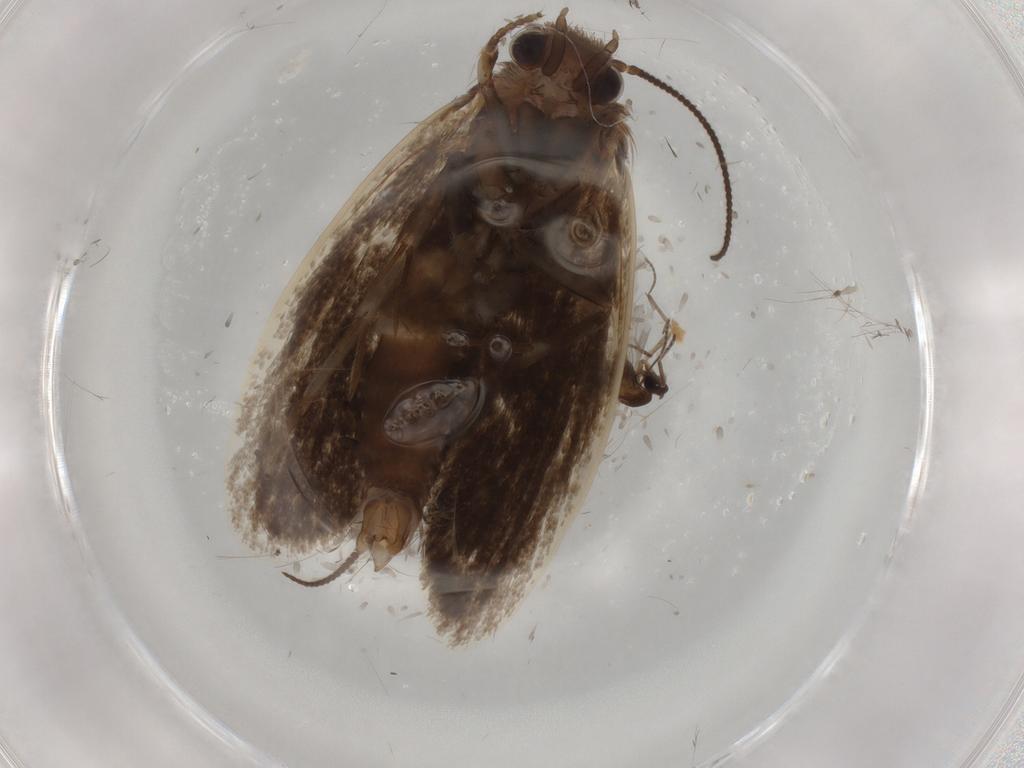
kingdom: Animalia
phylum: Arthropoda
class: Insecta
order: Lepidoptera
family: Tineidae
